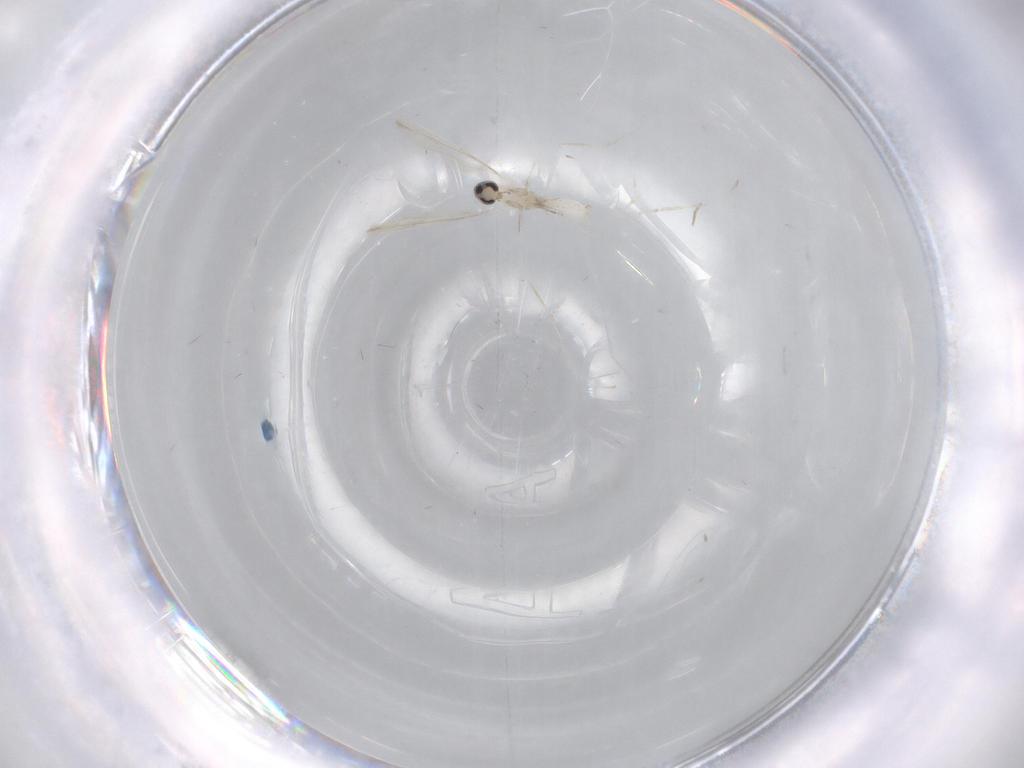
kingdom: Animalia
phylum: Arthropoda
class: Insecta
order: Diptera
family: Cecidomyiidae
